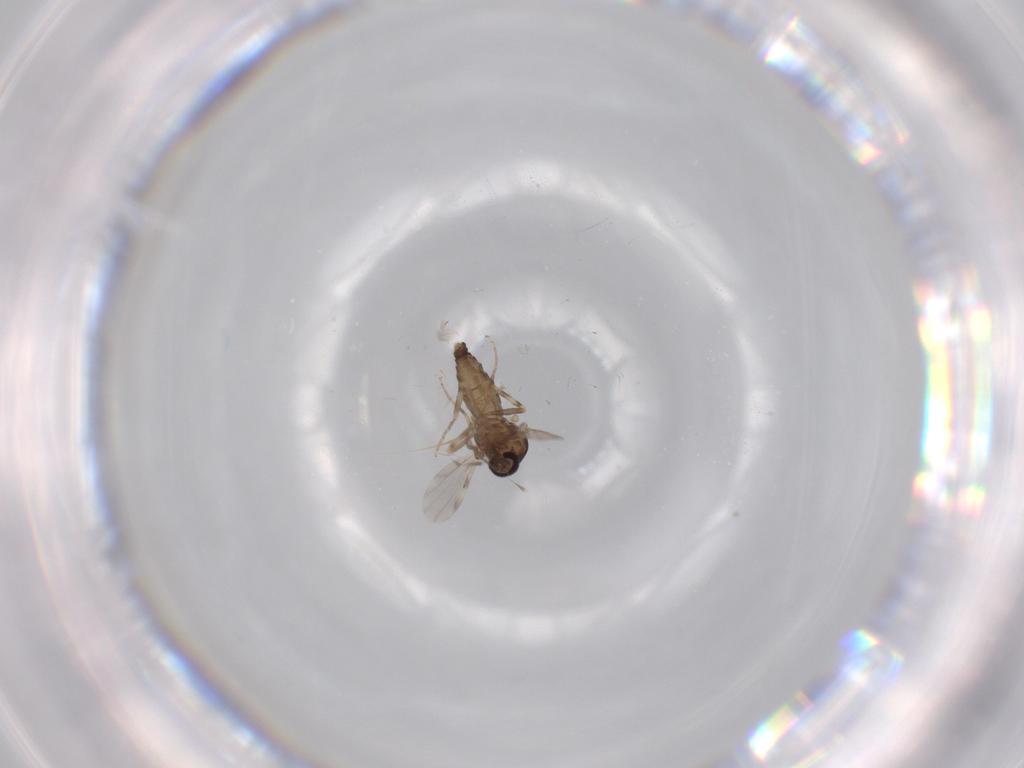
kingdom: Animalia
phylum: Arthropoda
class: Insecta
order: Diptera
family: Ceratopogonidae
